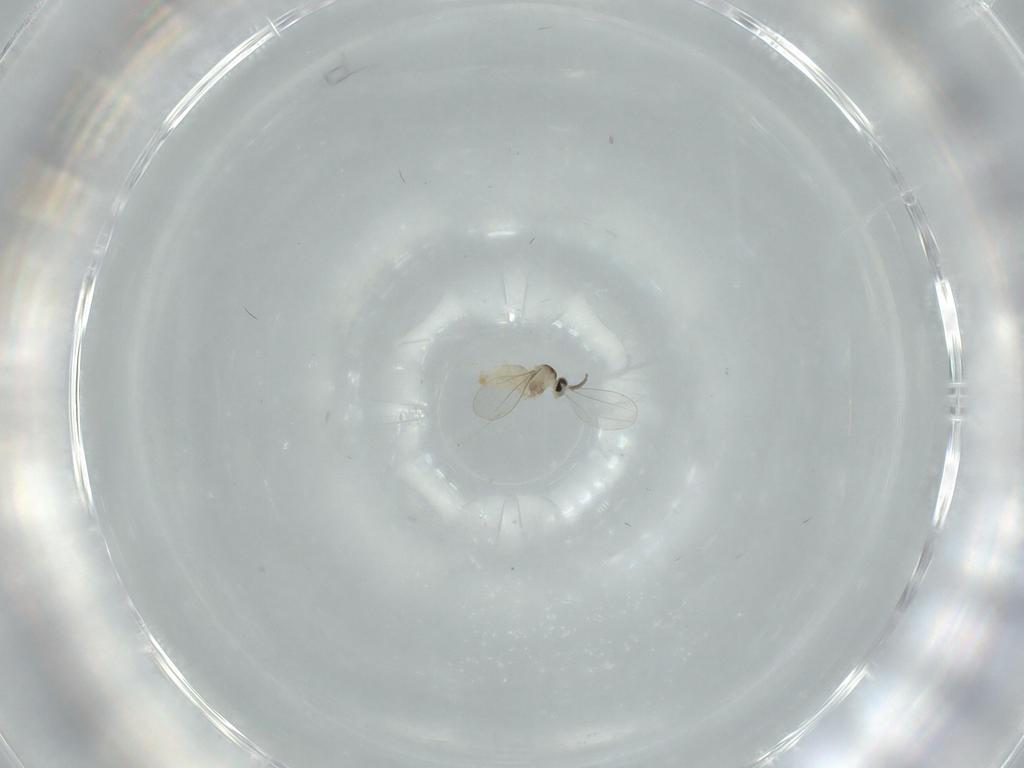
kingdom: Animalia
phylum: Arthropoda
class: Insecta
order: Diptera
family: Cecidomyiidae
